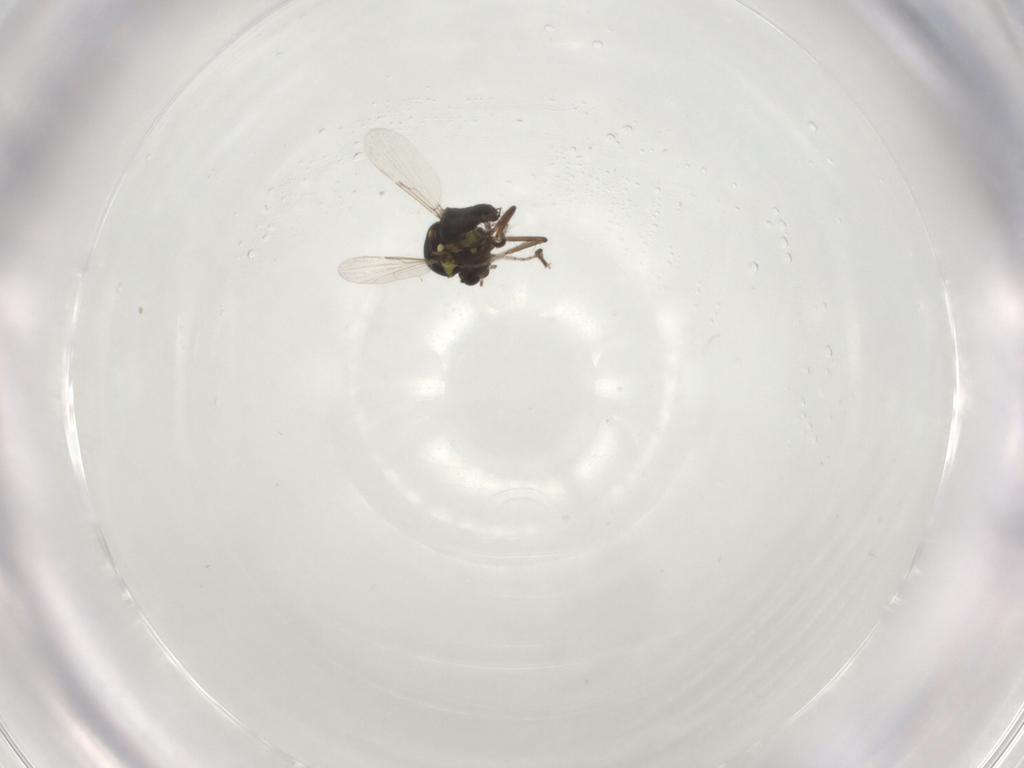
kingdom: Animalia
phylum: Arthropoda
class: Insecta
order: Diptera
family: Ceratopogonidae
